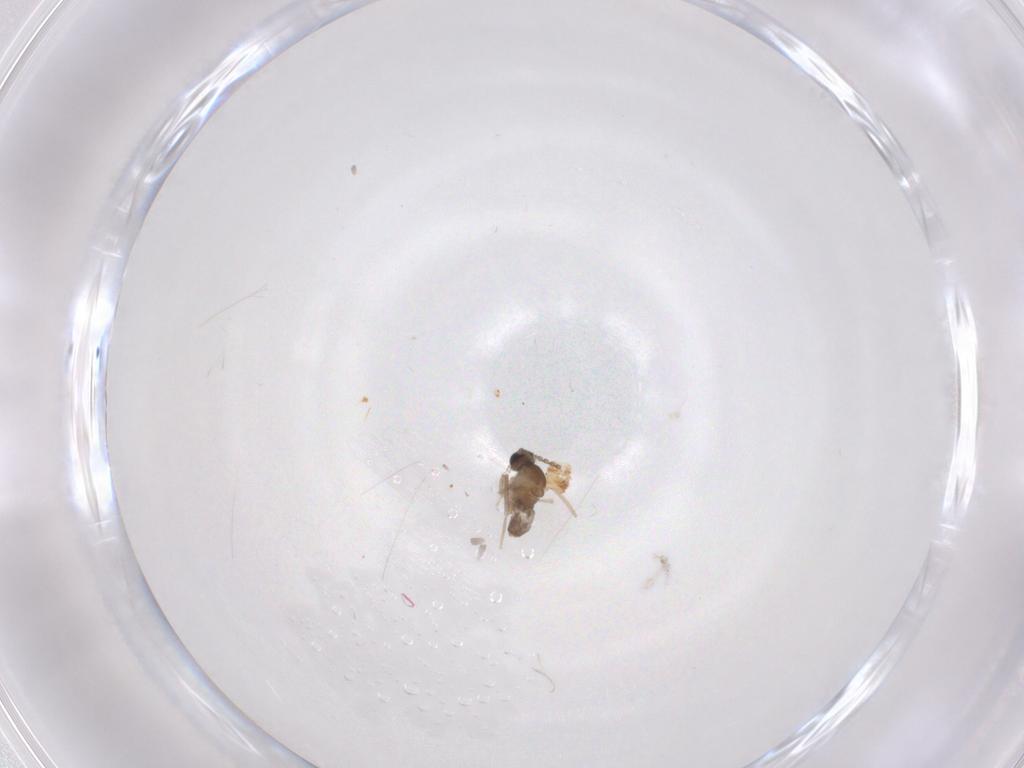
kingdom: Animalia
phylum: Arthropoda
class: Insecta
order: Diptera
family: Cecidomyiidae
